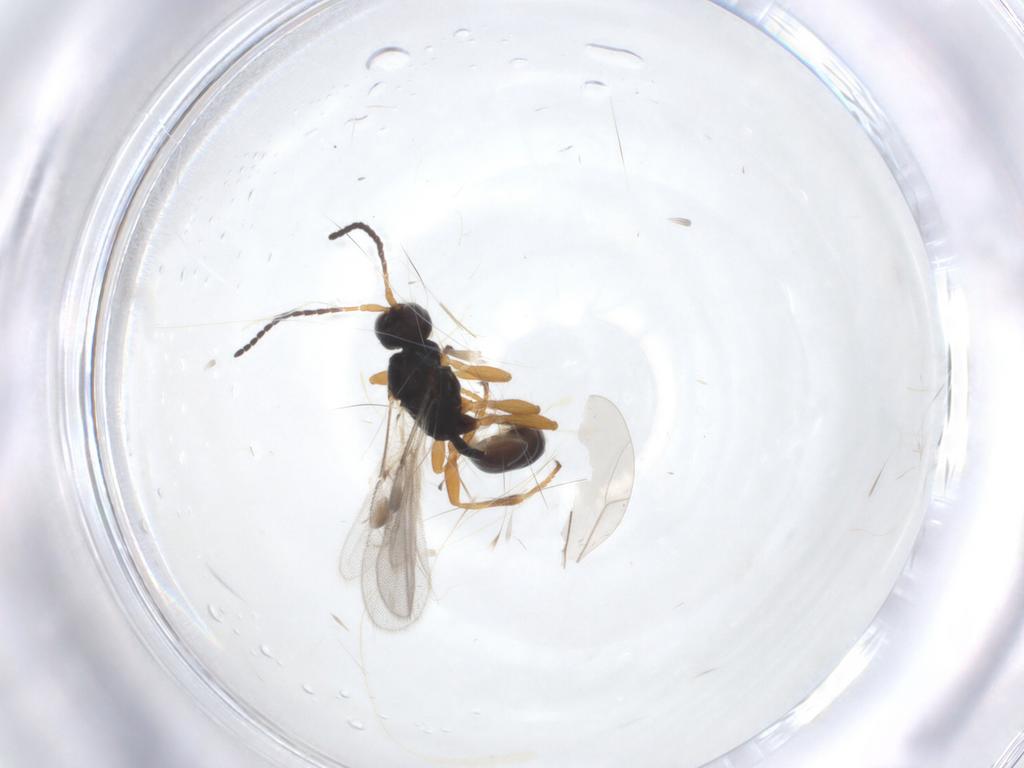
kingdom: Animalia
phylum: Arthropoda
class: Insecta
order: Hymenoptera
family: Braconidae
